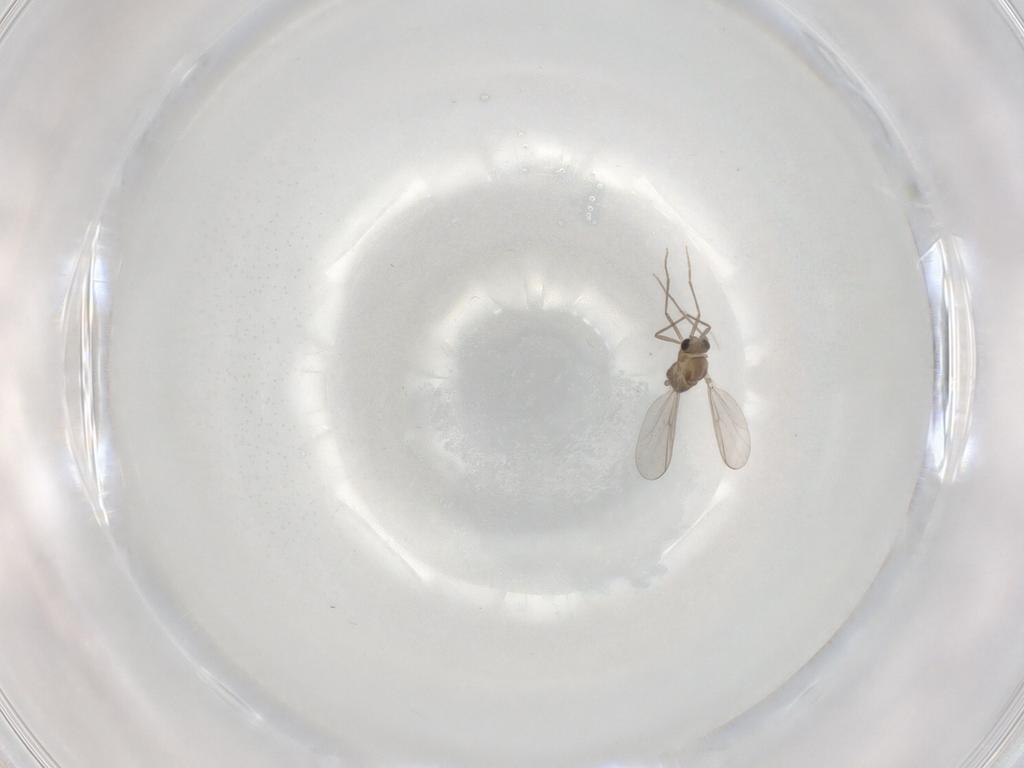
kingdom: Animalia
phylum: Arthropoda
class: Insecta
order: Diptera
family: Chironomidae
